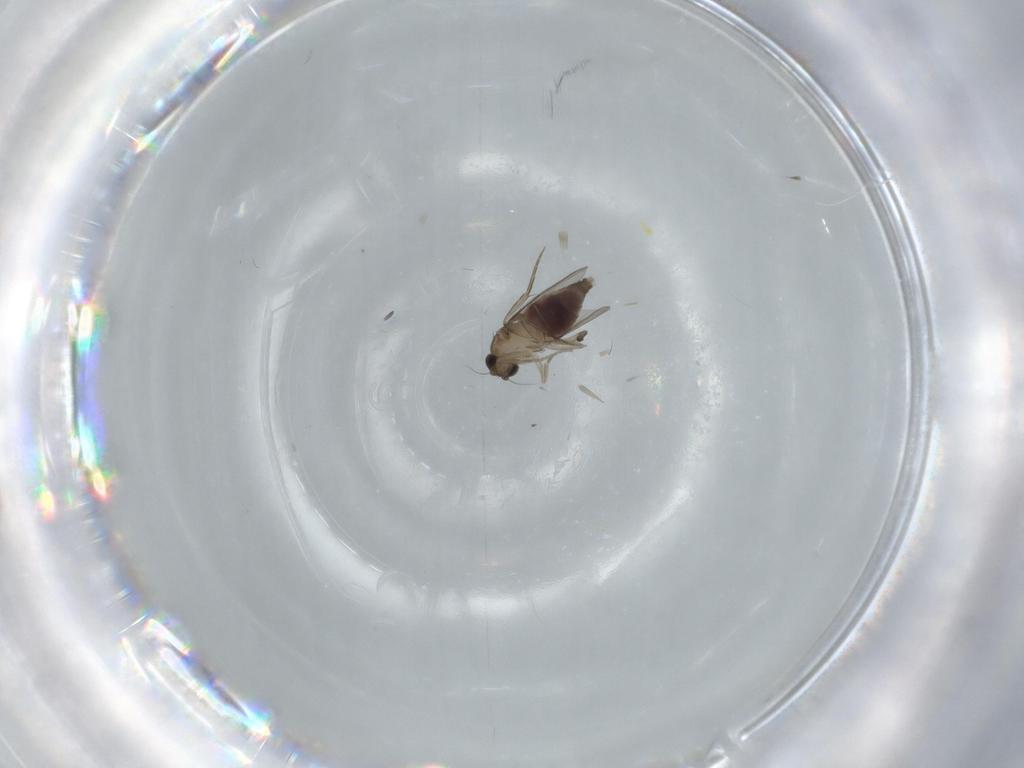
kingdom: Animalia
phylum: Arthropoda
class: Insecta
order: Diptera
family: Phoridae
